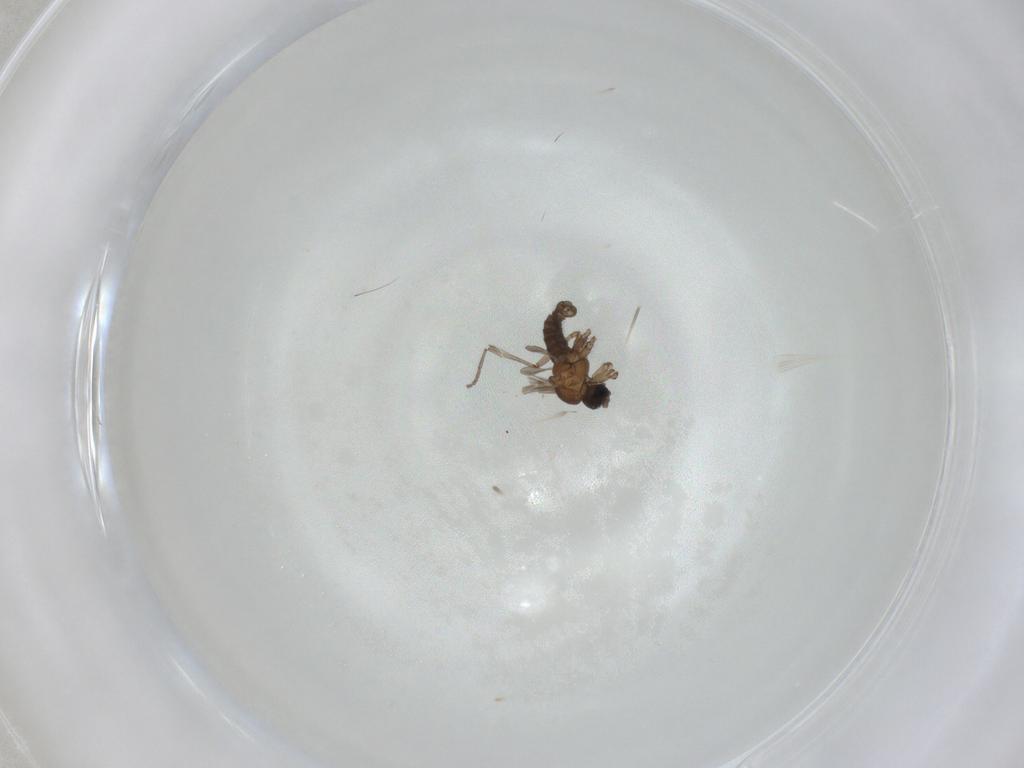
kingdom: Animalia
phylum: Arthropoda
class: Insecta
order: Diptera
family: Sciaridae
